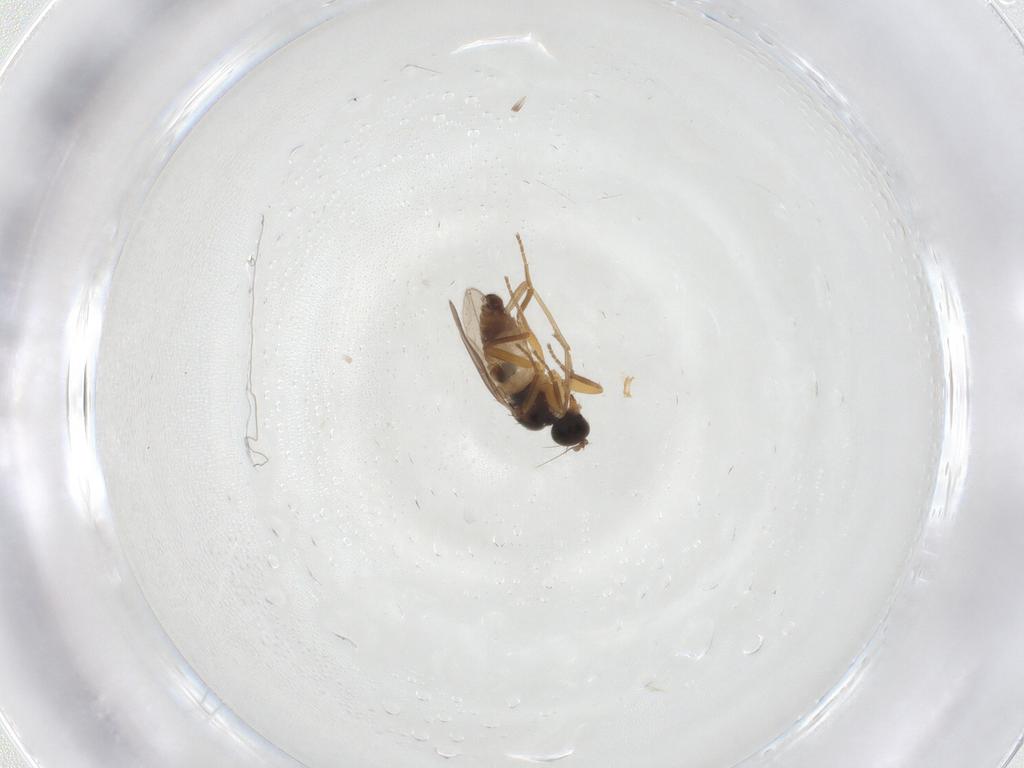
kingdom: Animalia
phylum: Arthropoda
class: Insecta
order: Diptera
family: Hybotidae
